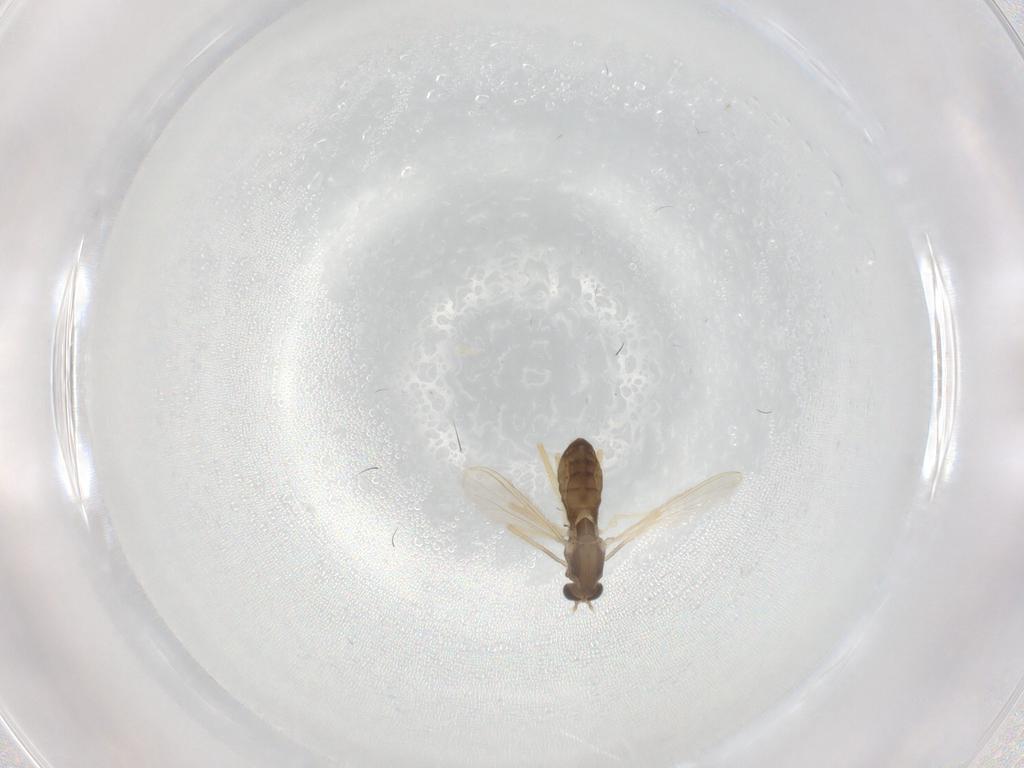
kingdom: Animalia
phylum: Arthropoda
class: Insecta
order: Diptera
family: Chironomidae
